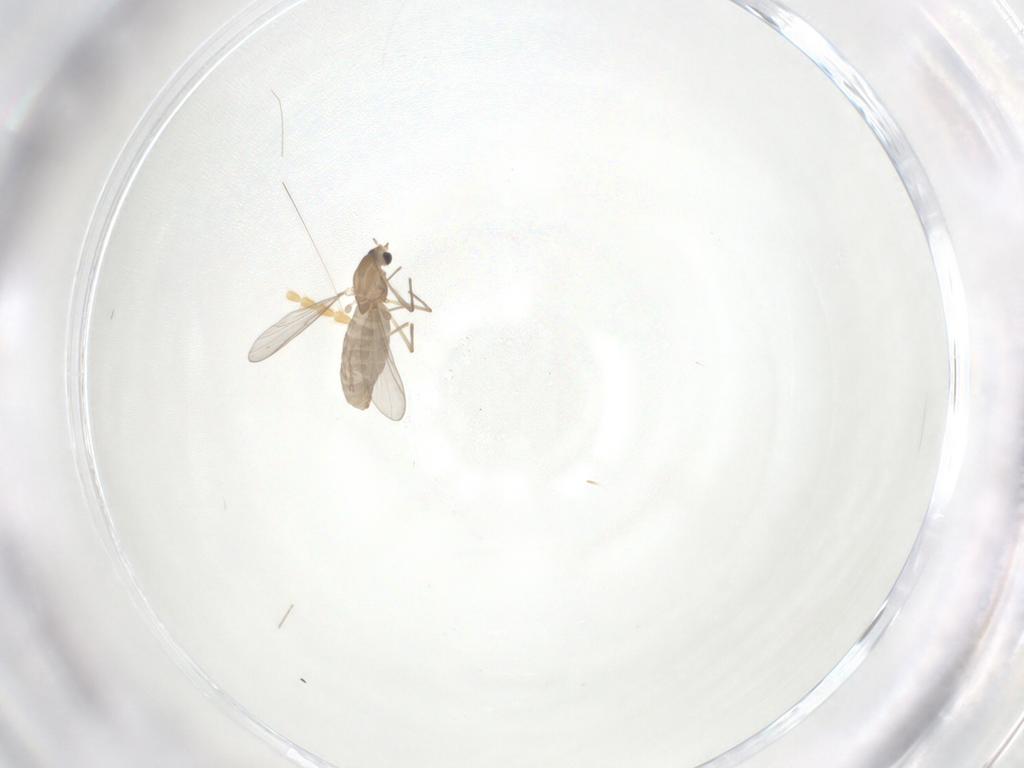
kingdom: Animalia
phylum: Arthropoda
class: Insecta
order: Diptera
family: Chironomidae
